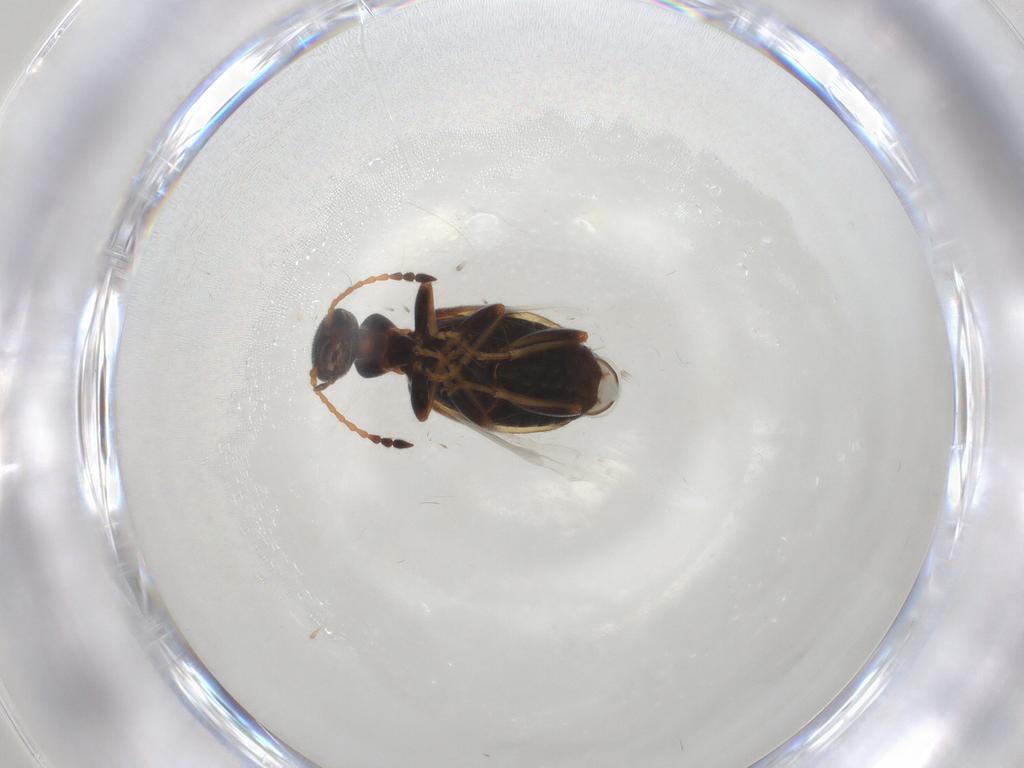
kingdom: Animalia
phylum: Arthropoda
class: Insecta
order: Coleoptera
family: Anthicidae
